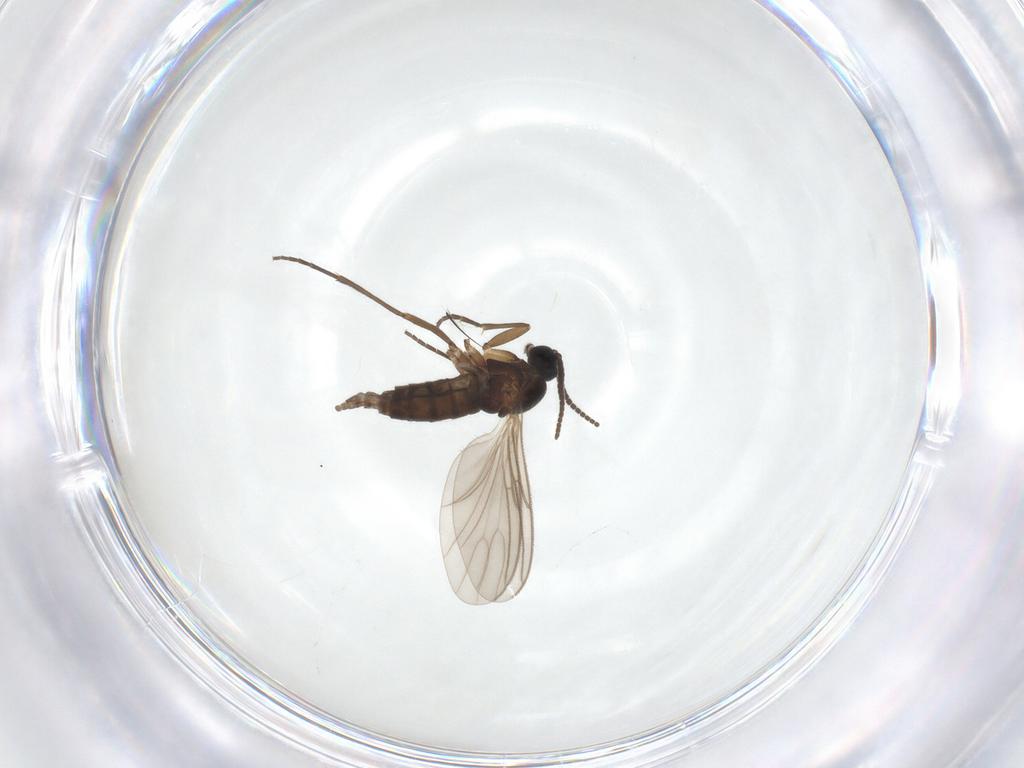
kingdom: Animalia
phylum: Arthropoda
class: Insecta
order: Diptera
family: Sciaridae
